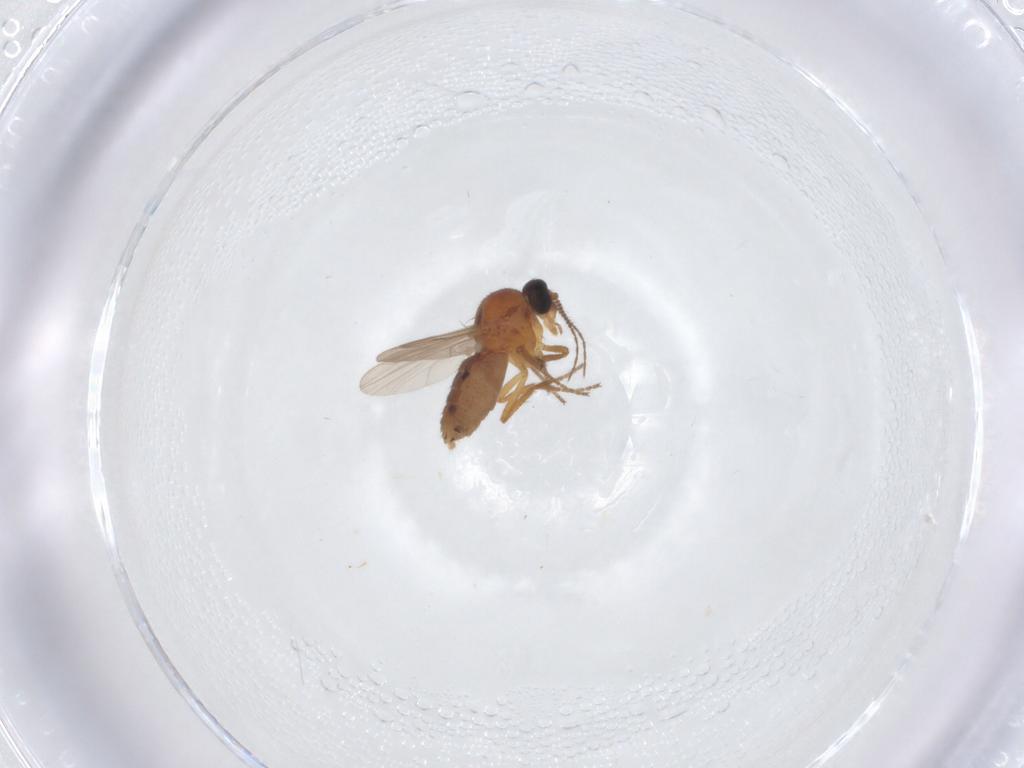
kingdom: Animalia
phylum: Arthropoda
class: Insecta
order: Diptera
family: Ceratopogonidae
